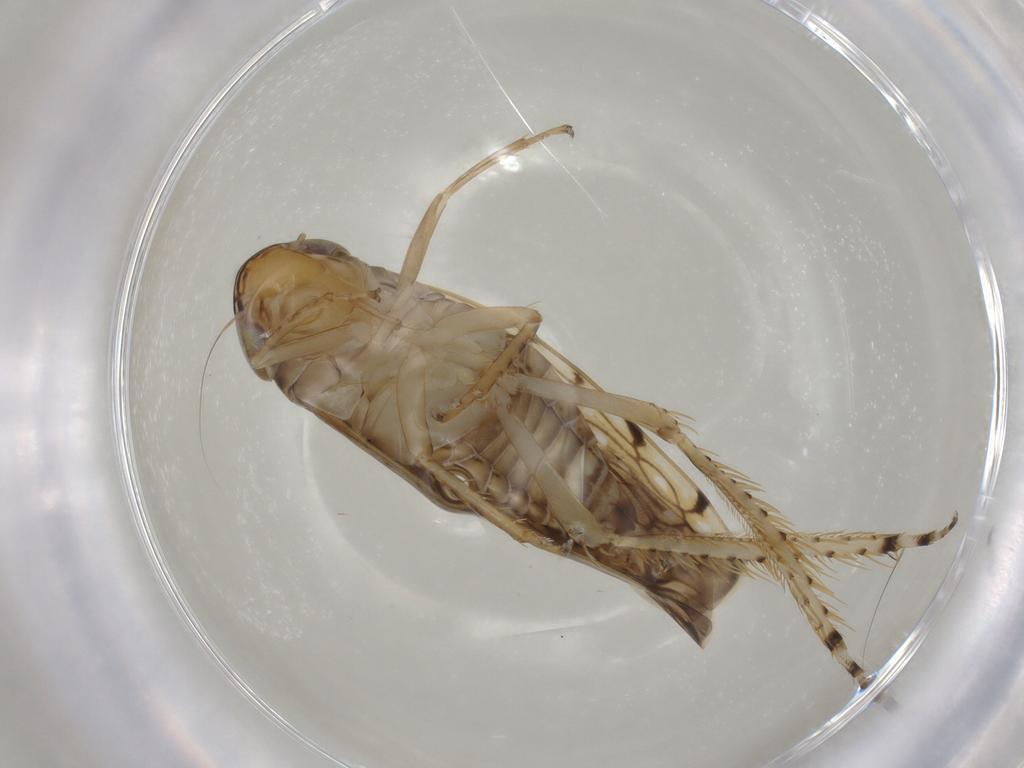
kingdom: Animalia
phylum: Arthropoda
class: Insecta
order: Hemiptera
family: Cicadellidae
